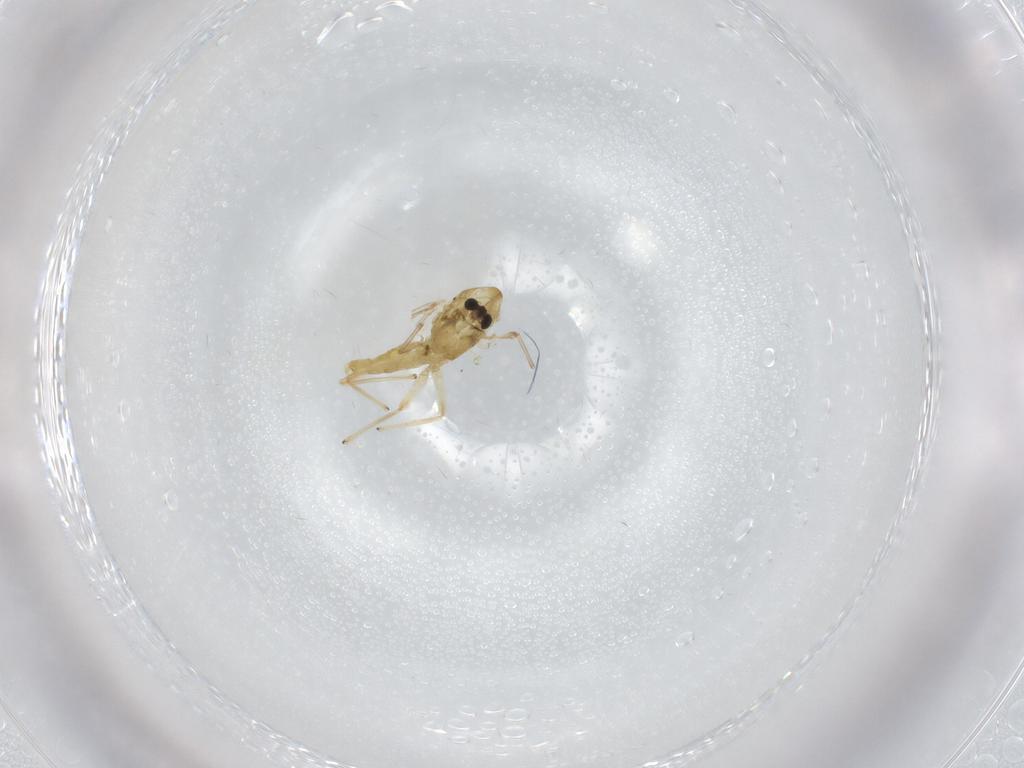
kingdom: Animalia
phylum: Arthropoda
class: Insecta
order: Diptera
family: Chironomidae
